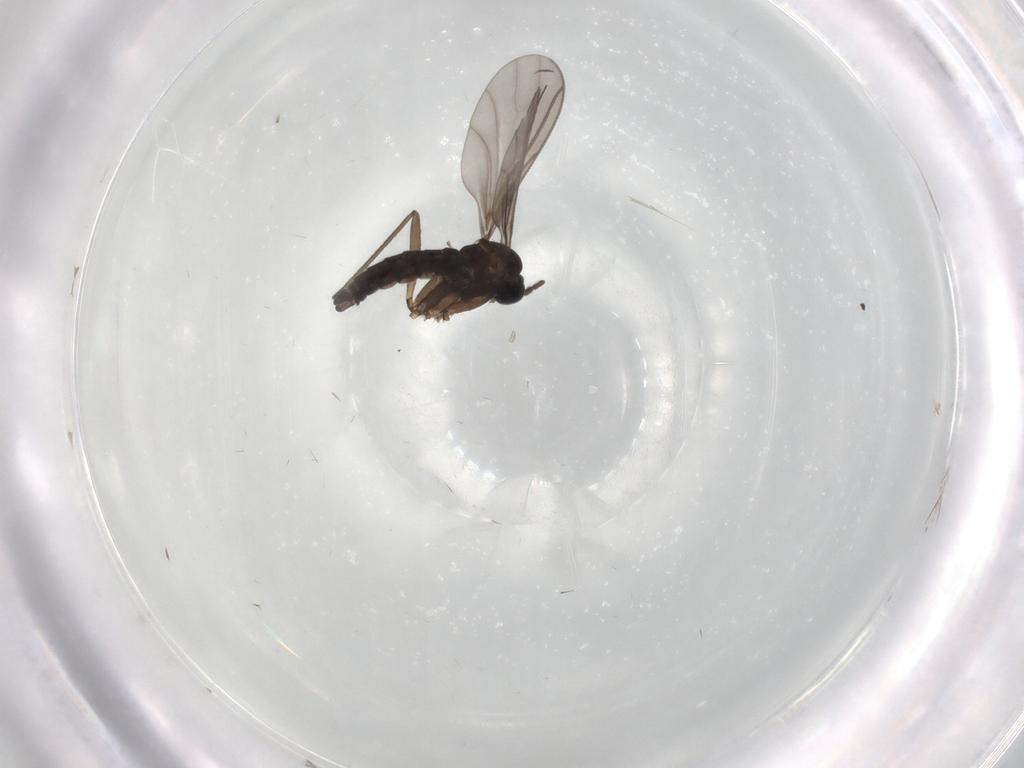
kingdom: Animalia
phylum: Arthropoda
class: Insecta
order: Diptera
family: Sciaridae
